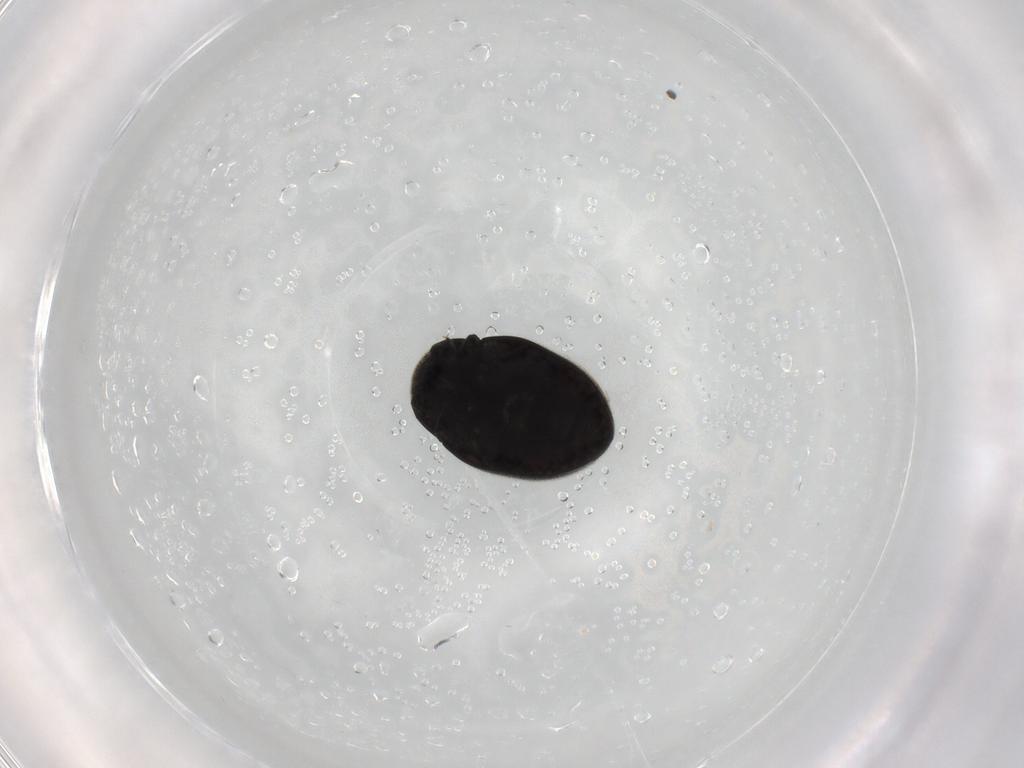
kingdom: Animalia
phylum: Arthropoda
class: Insecta
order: Coleoptera
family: Limnichidae
